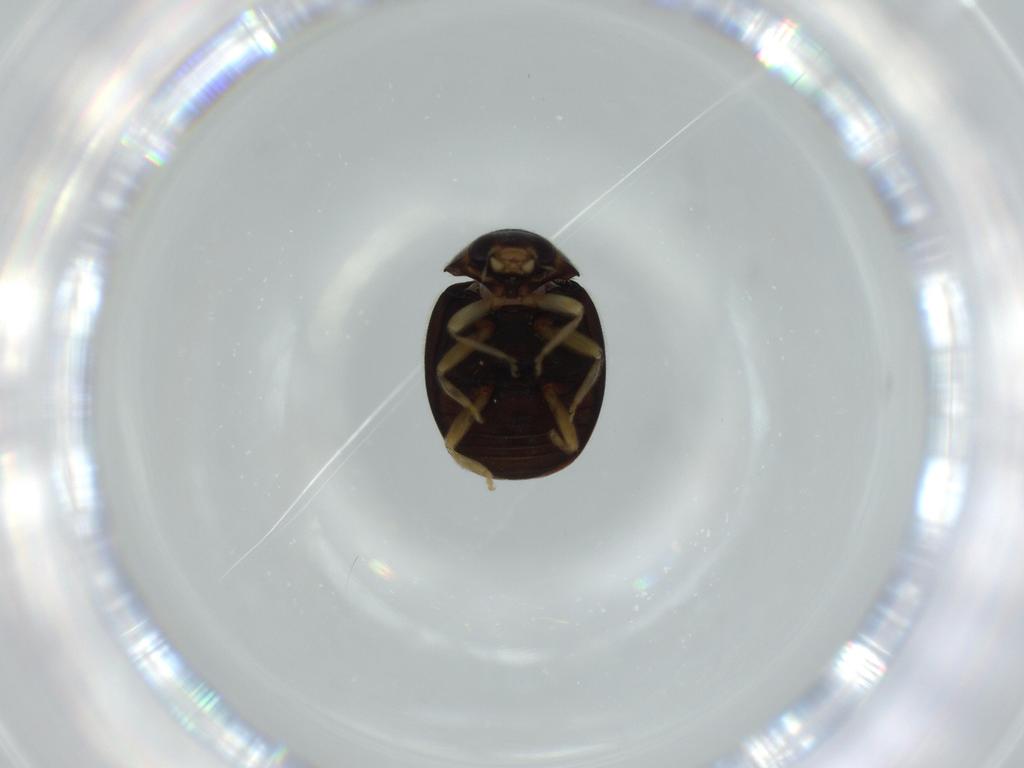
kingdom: Animalia
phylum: Arthropoda
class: Insecta
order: Coleoptera
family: Coccinellidae
